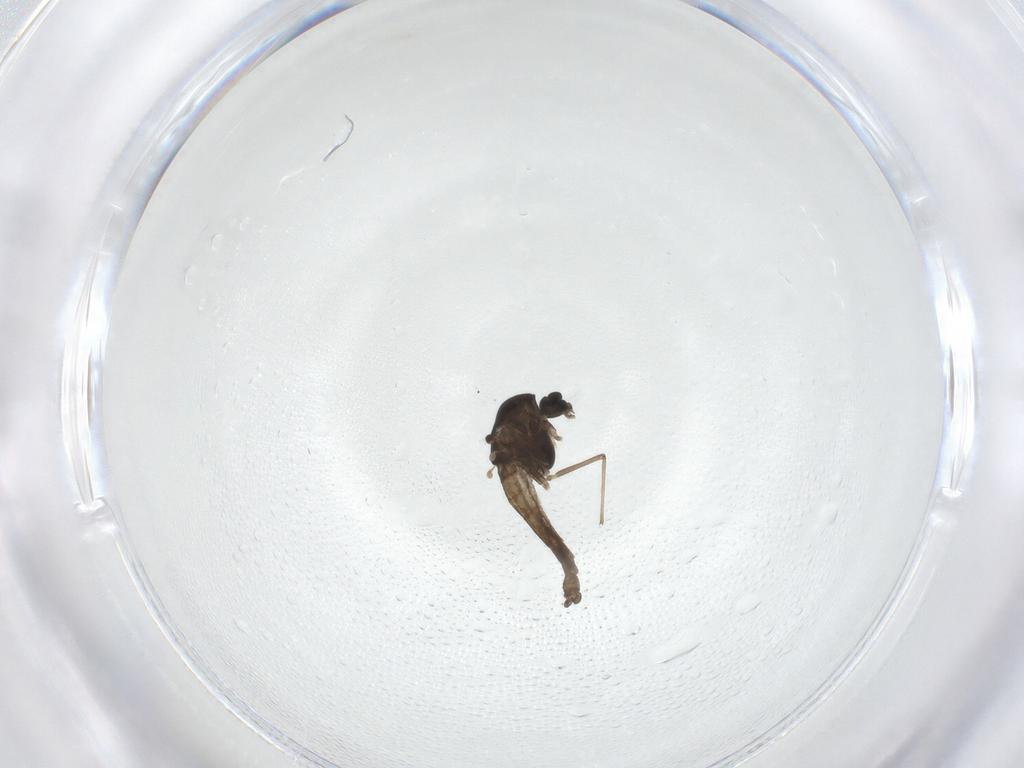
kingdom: Animalia
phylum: Arthropoda
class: Insecta
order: Diptera
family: Chironomidae
